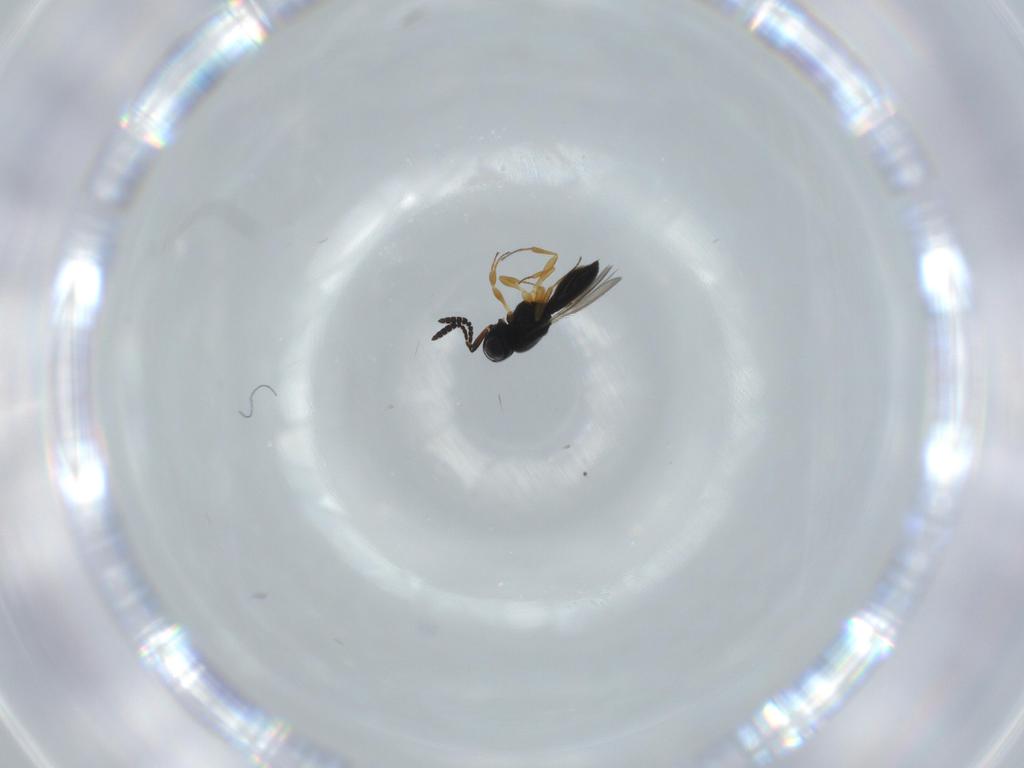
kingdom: Animalia
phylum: Arthropoda
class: Insecta
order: Hymenoptera
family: Scelionidae
